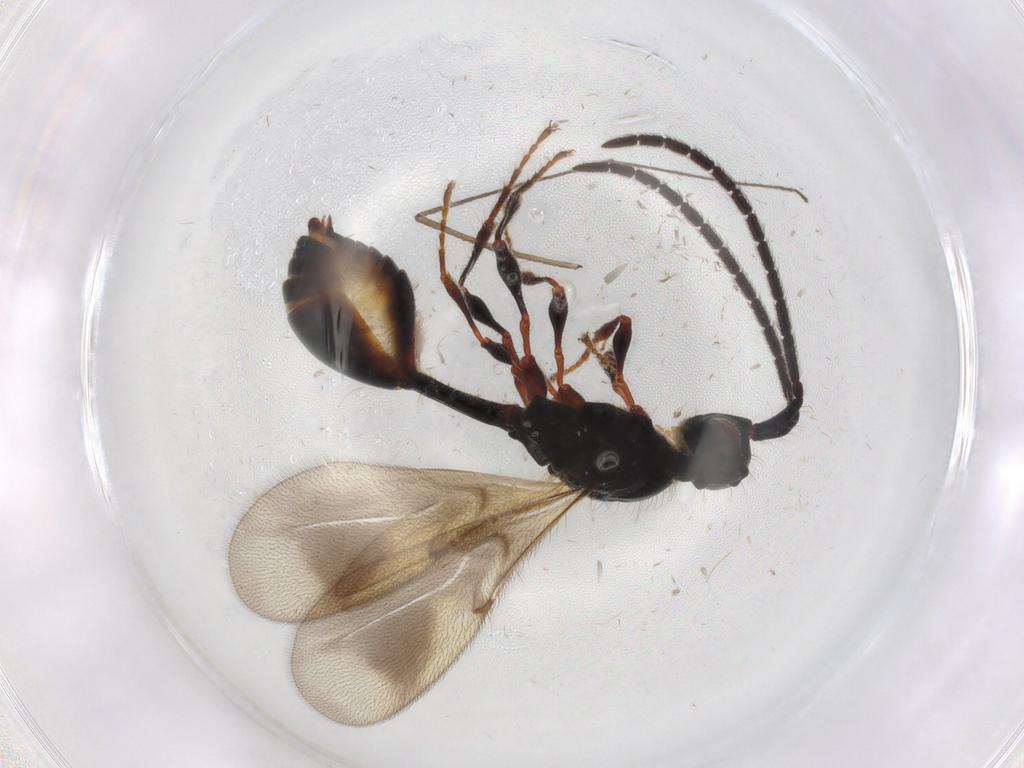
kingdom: Animalia
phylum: Arthropoda
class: Insecta
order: Hymenoptera
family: Diapriidae
